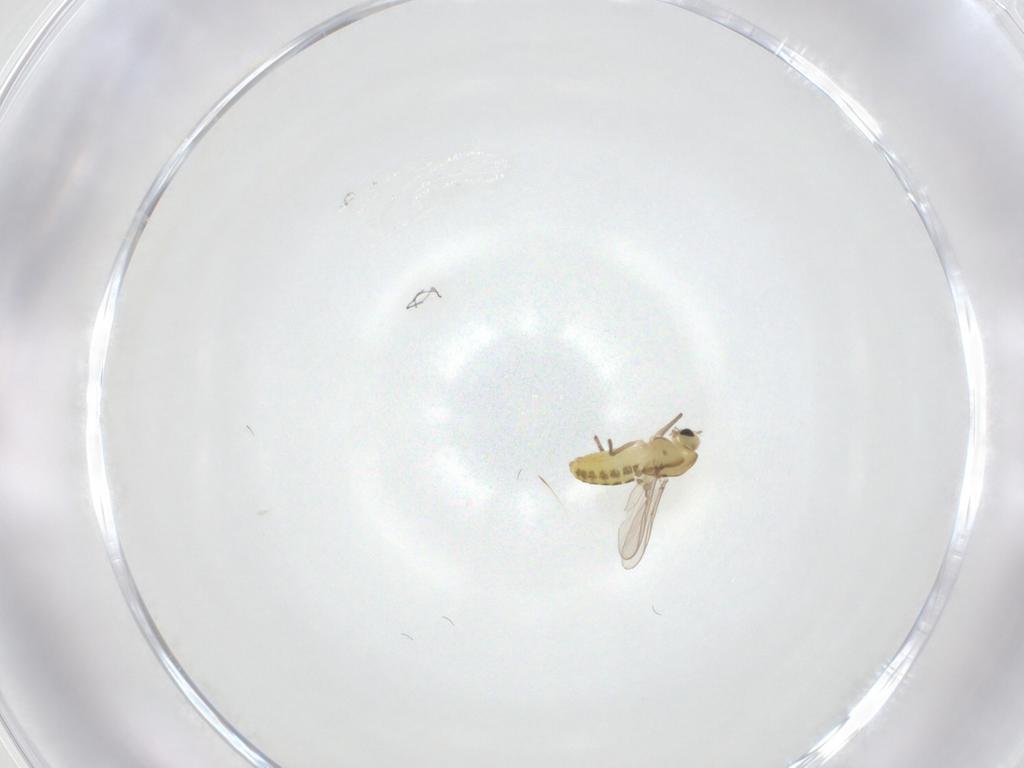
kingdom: Animalia
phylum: Arthropoda
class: Insecta
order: Diptera
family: Chironomidae
